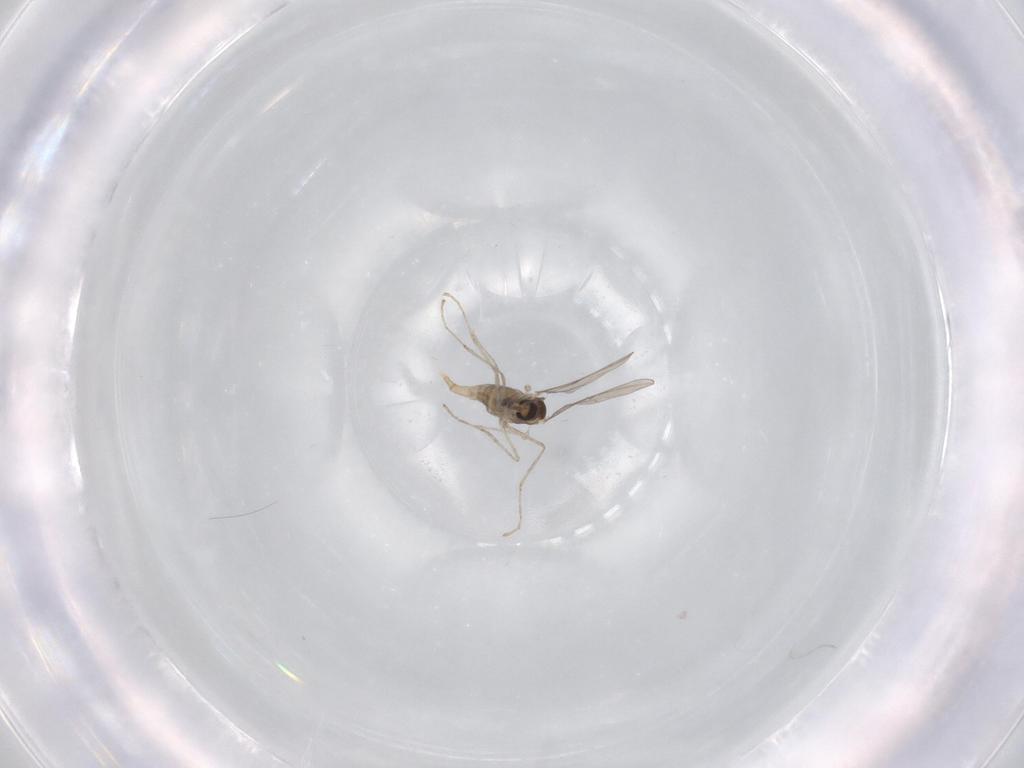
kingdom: Animalia
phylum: Arthropoda
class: Insecta
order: Diptera
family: Cecidomyiidae
